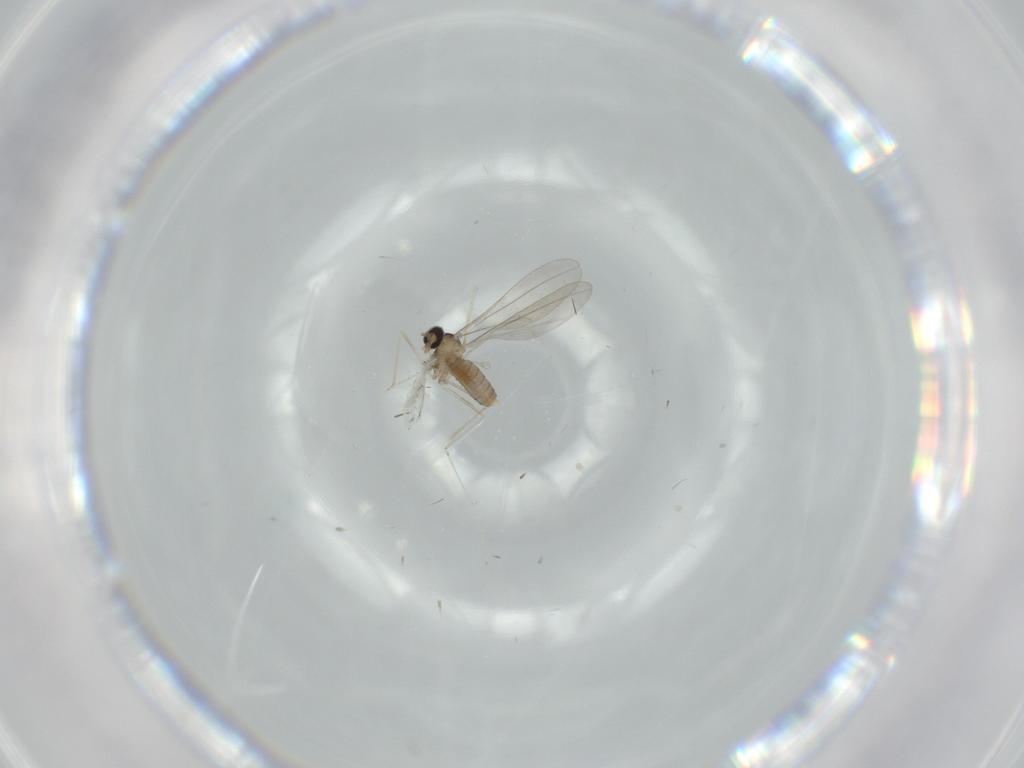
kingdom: Animalia
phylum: Arthropoda
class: Insecta
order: Diptera
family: Cecidomyiidae
